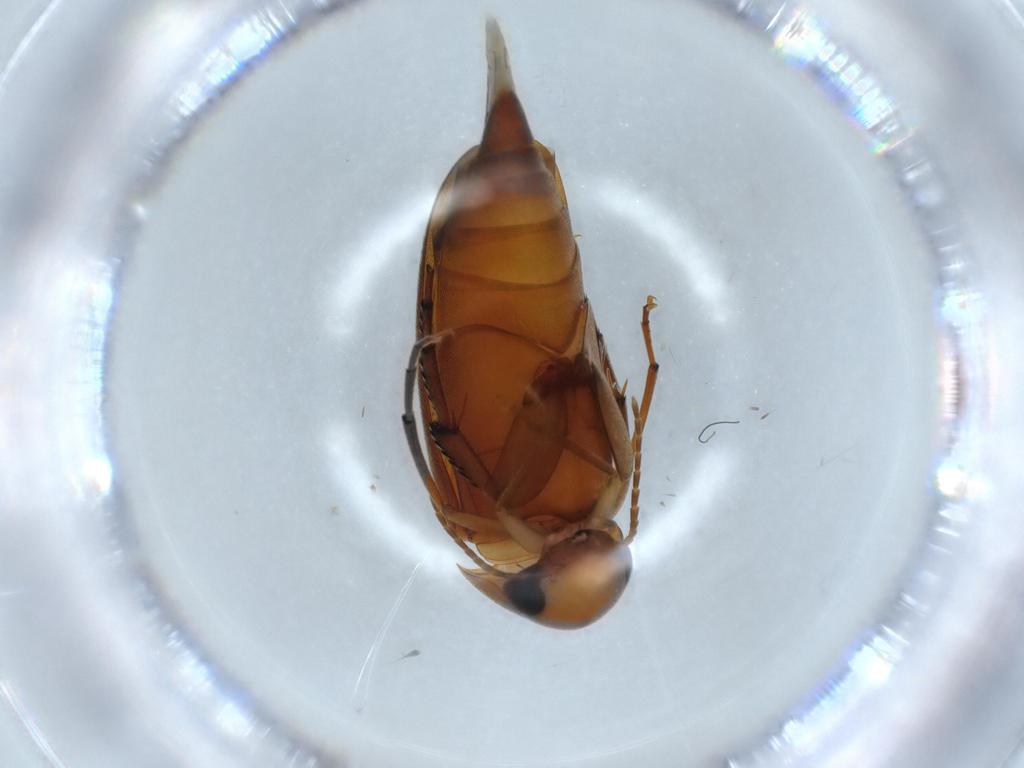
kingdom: Animalia
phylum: Arthropoda
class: Insecta
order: Coleoptera
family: Mordellidae
